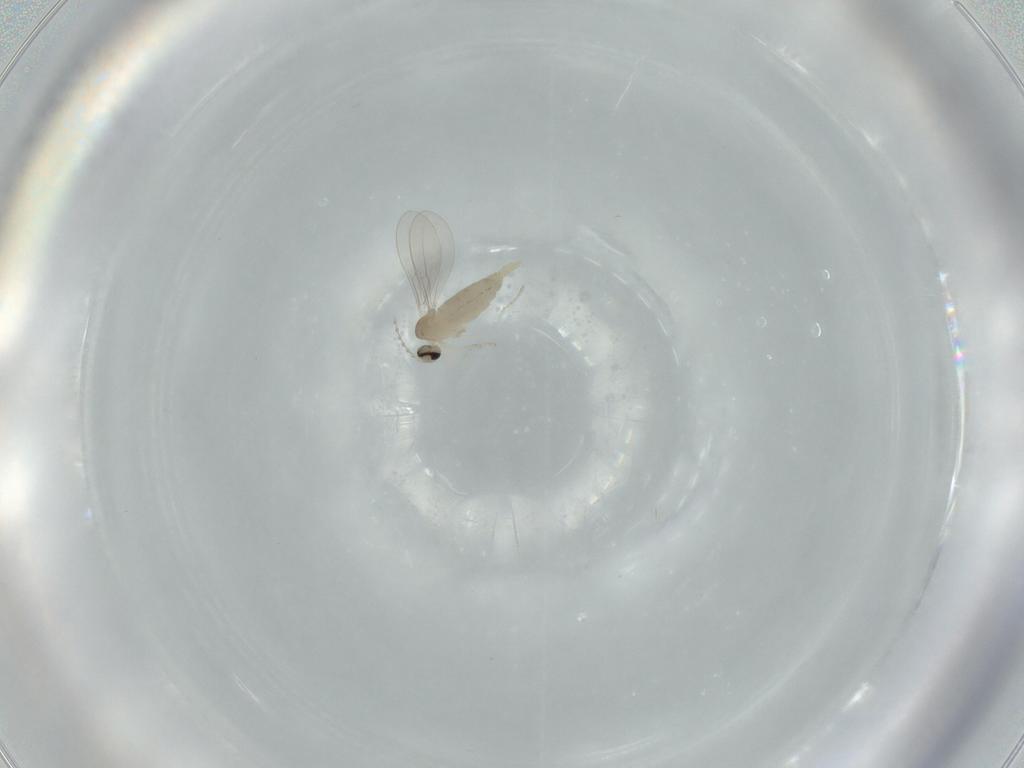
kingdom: Animalia
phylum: Arthropoda
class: Insecta
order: Diptera
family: Cecidomyiidae
